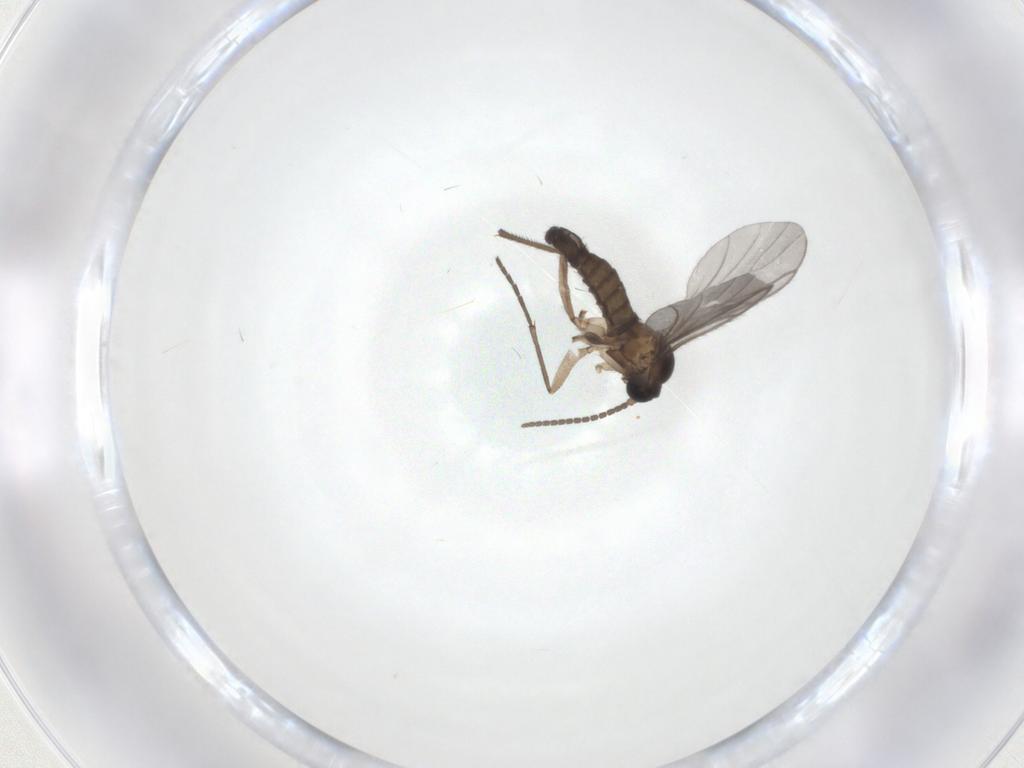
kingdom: Animalia
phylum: Arthropoda
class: Insecta
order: Diptera
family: Sciaridae
